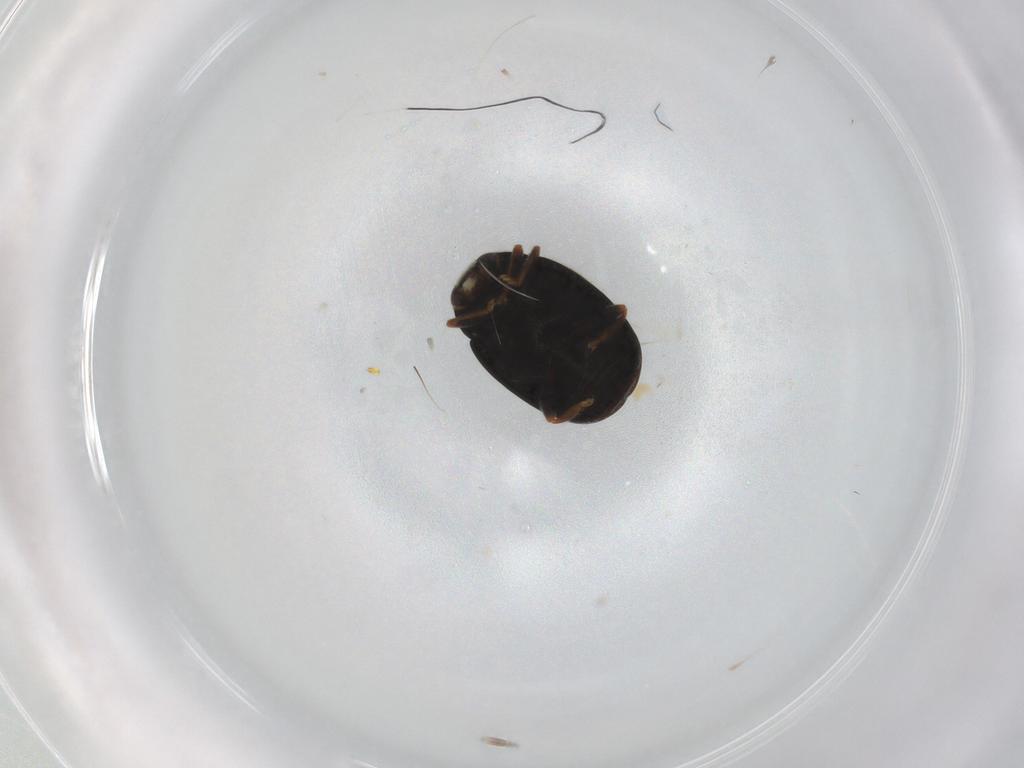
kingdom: Animalia
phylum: Arthropoda
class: Insecta
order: Coleoptera
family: Coccinellidae
